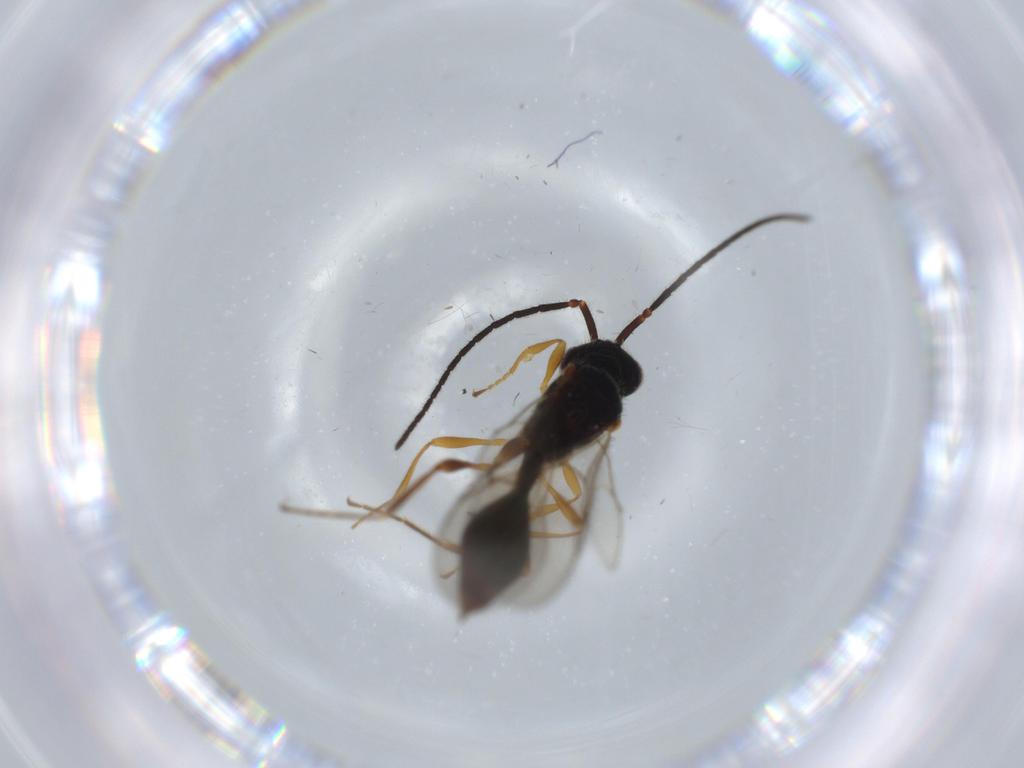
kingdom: Animalia
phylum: Arthropoda
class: Insecta
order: Hymenoptera
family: Diapriidae
